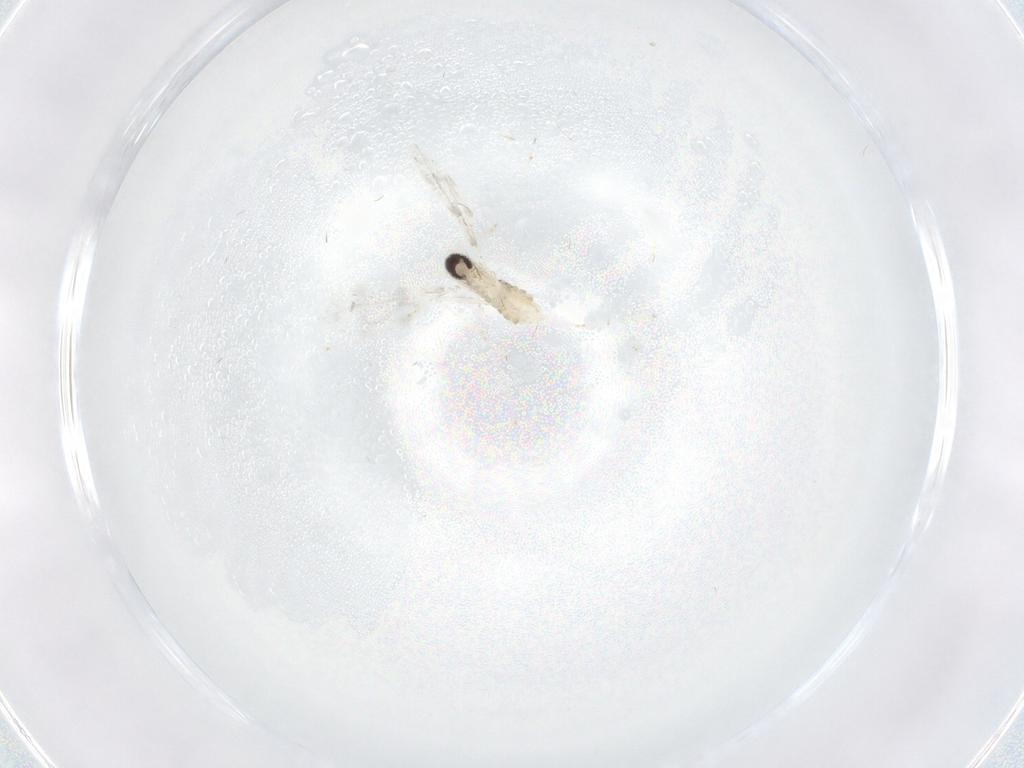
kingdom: Animalia
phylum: Arthropoda
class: Insecta
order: Diptera
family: Cecidomyiidae
